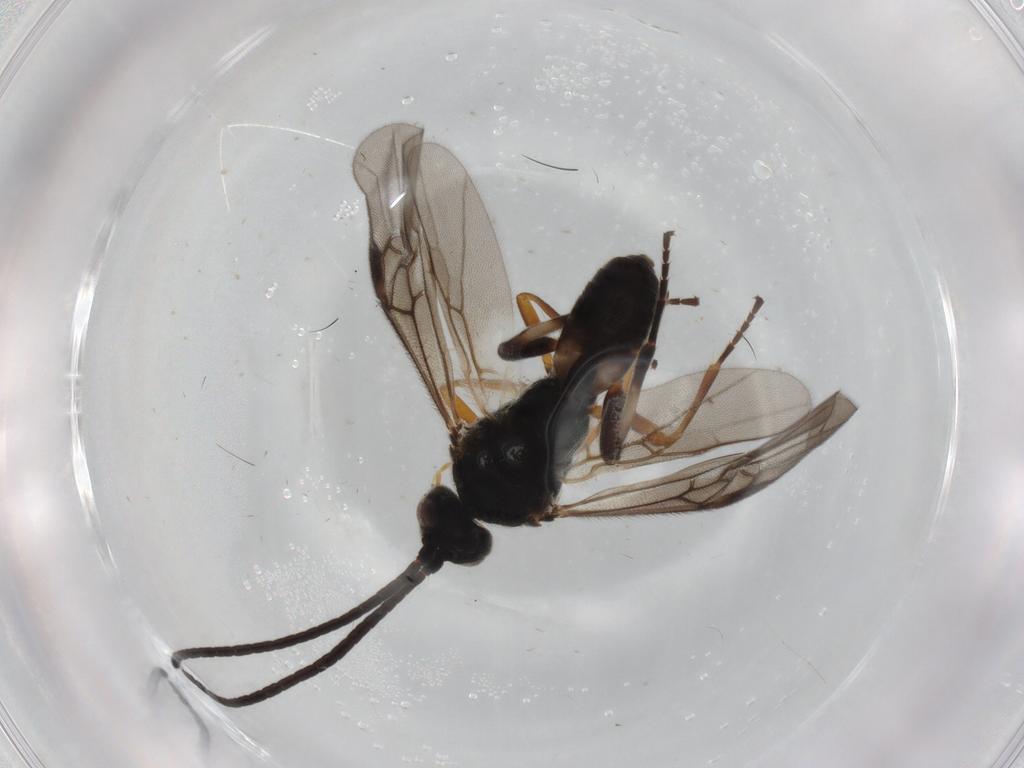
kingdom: Animalia
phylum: Arthropoda
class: Insecta
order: Hymenoptera
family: Braconidae
